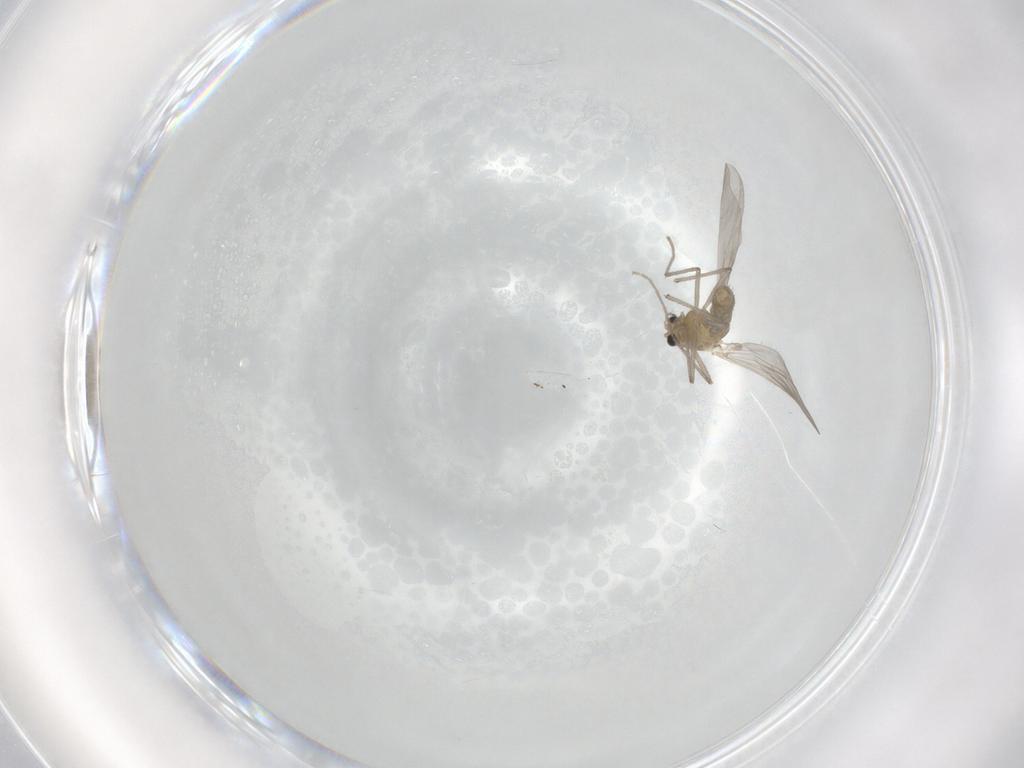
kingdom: Animalia
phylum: Arthropoda
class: Insecta
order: Diptera
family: Chironomidae
